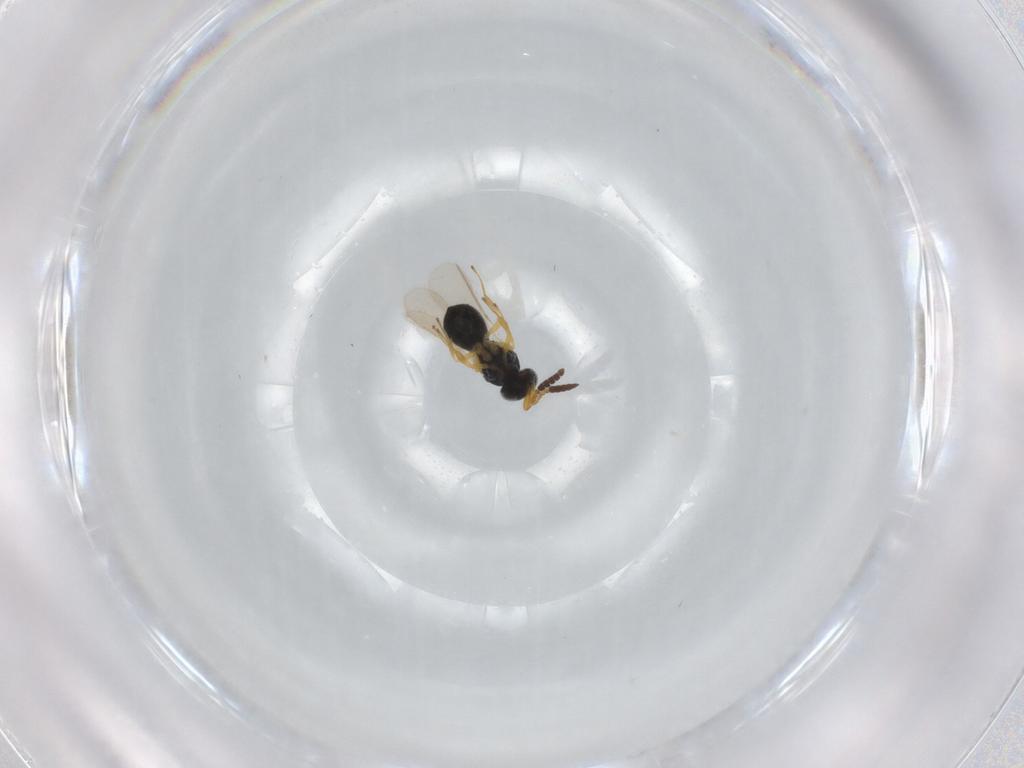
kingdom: Animalia
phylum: Arthropoda
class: Insecta
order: Hymenoptera
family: Scelionidae
